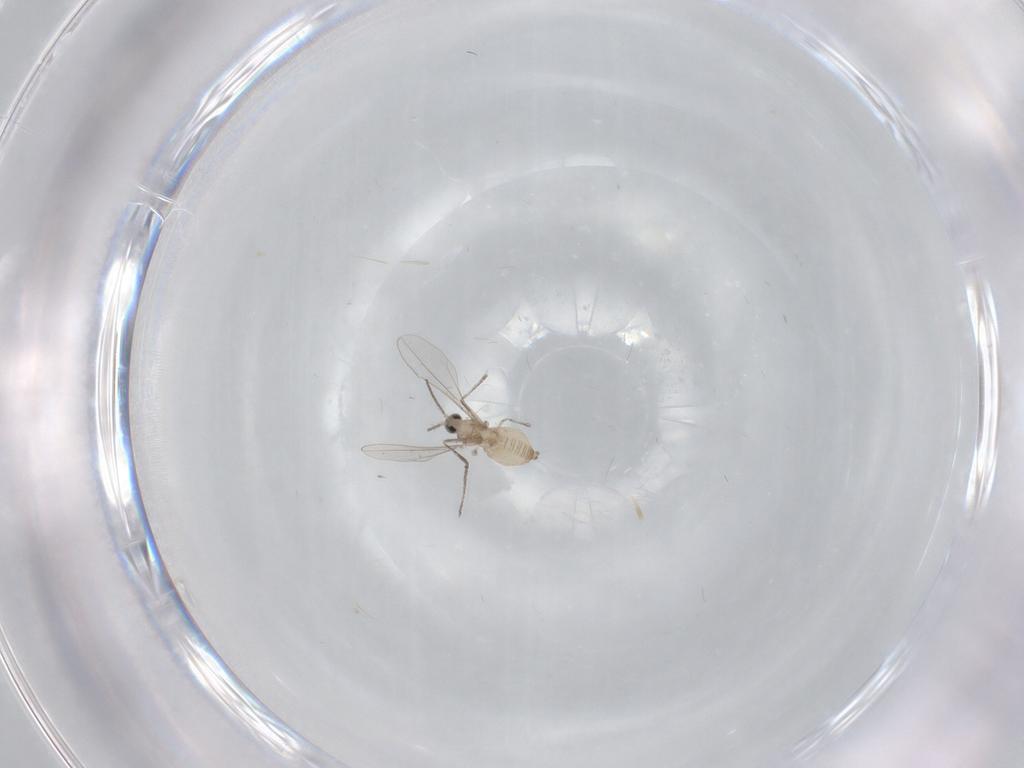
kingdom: Animalia
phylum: Arthropoda
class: Insecta
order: Diptera
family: Cecidomyiidae
